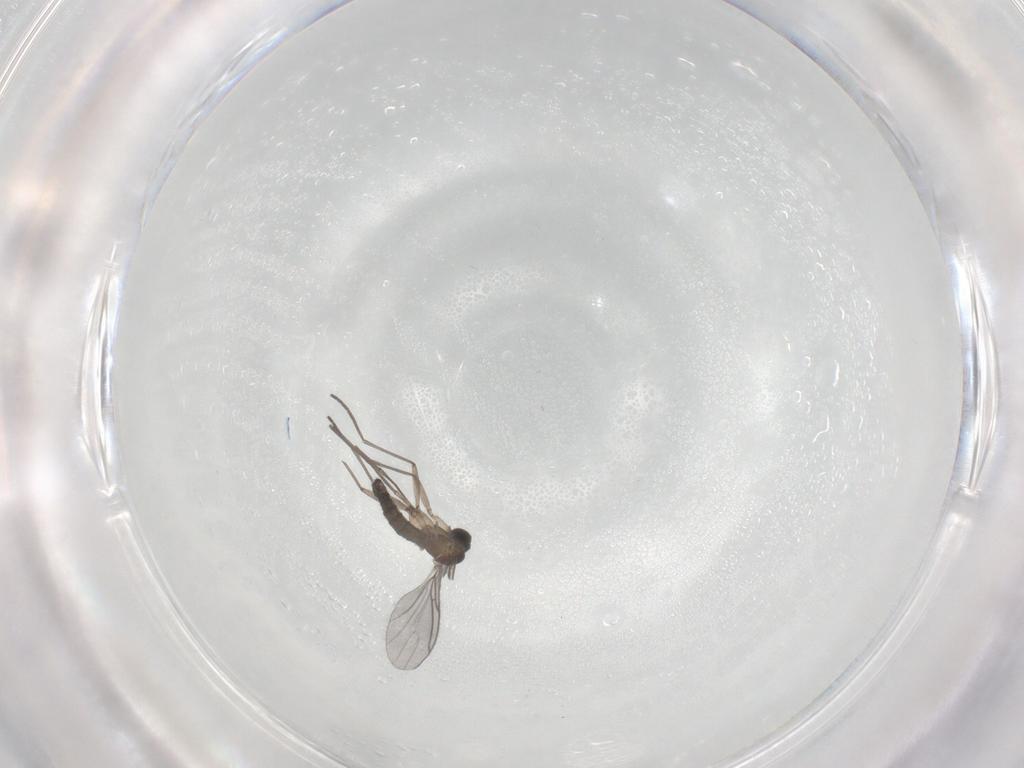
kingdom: Animalia
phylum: Arthropoda
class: Insecta
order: Diptera
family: Sciaridae
